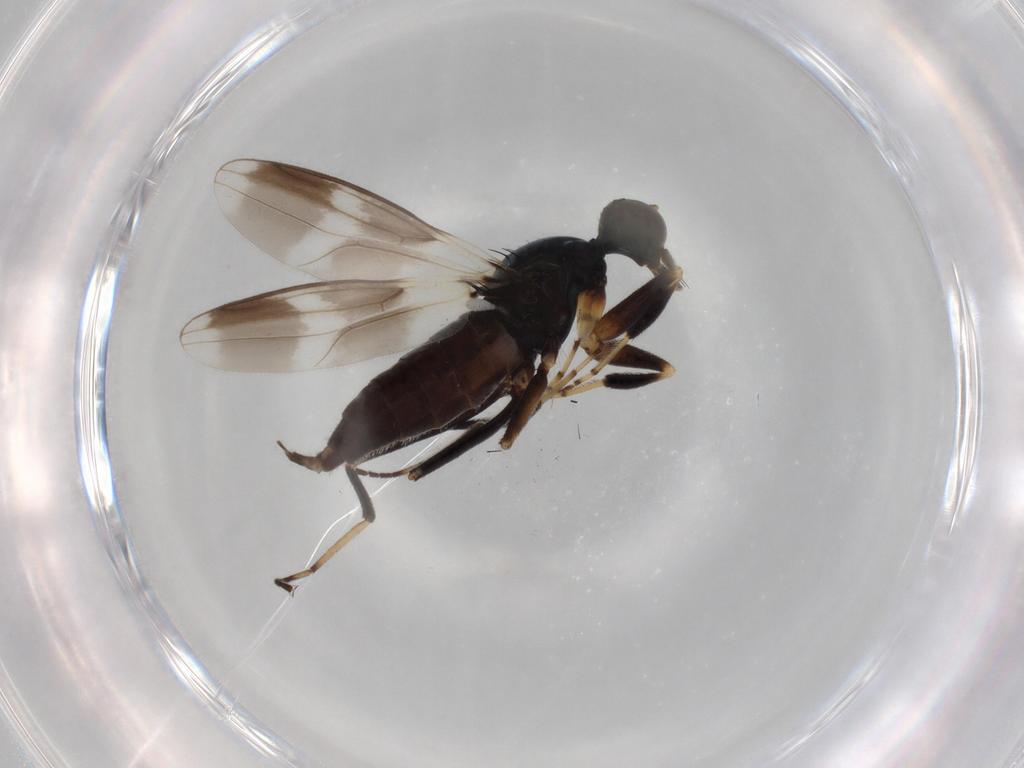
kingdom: Animalia
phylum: Arthropoda
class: Insecta
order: Diptera
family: Hybotidae
